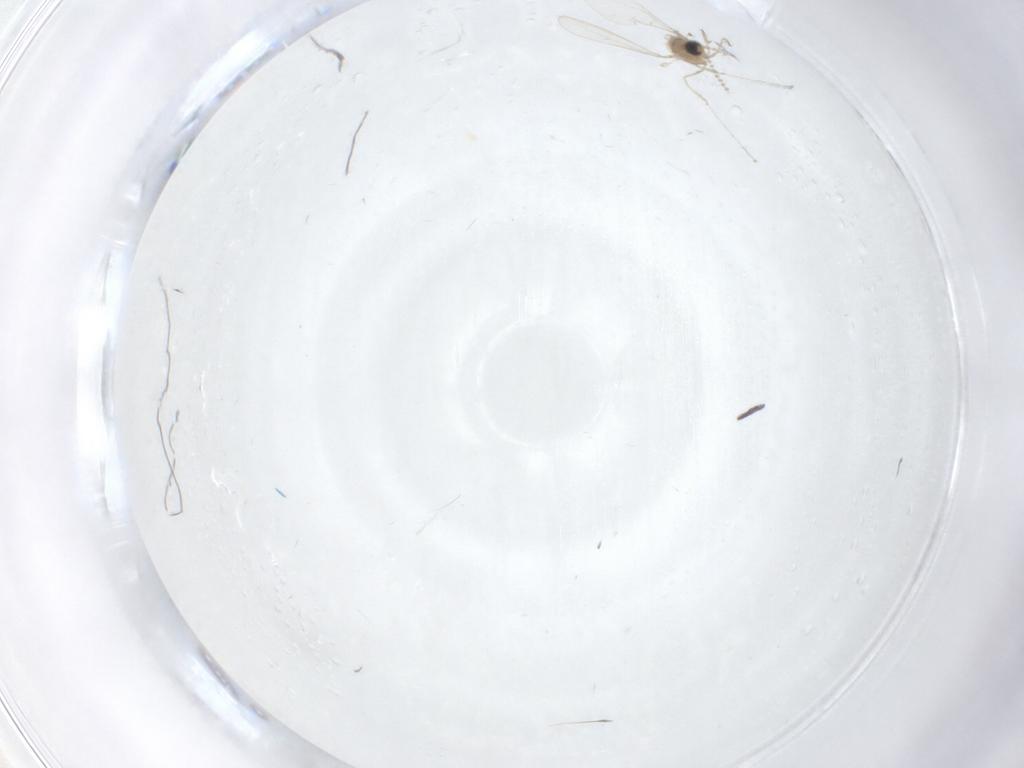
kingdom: Animalia
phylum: Arthropoda
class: Insecta
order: Diptera
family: Cecidomyiidae
